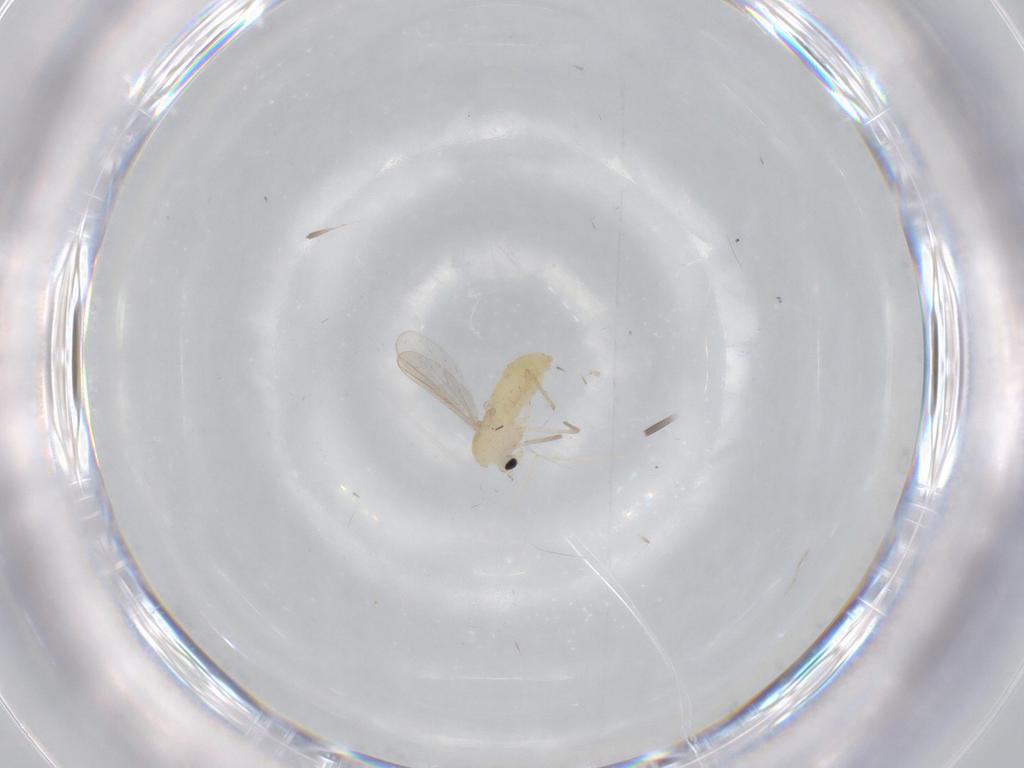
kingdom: Animalia
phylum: Arthropoda
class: Insecta
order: Diptera
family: Chironomidae
